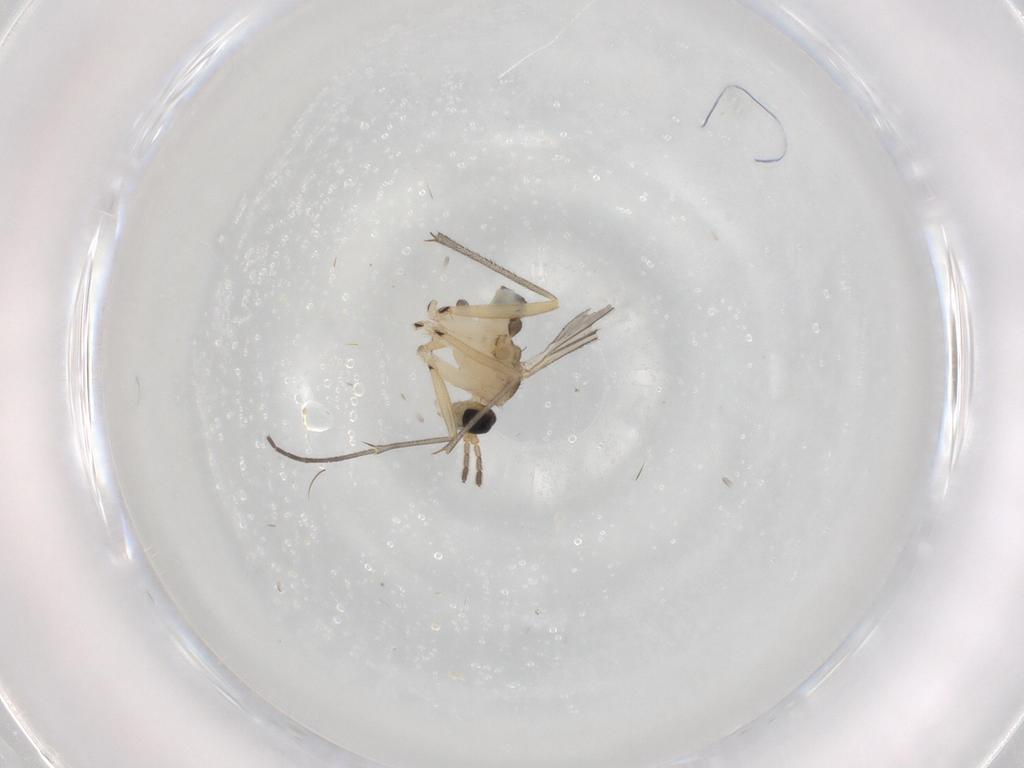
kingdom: Animalia
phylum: Arthropoda
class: Insecta
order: Diptera
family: Sciaridae
